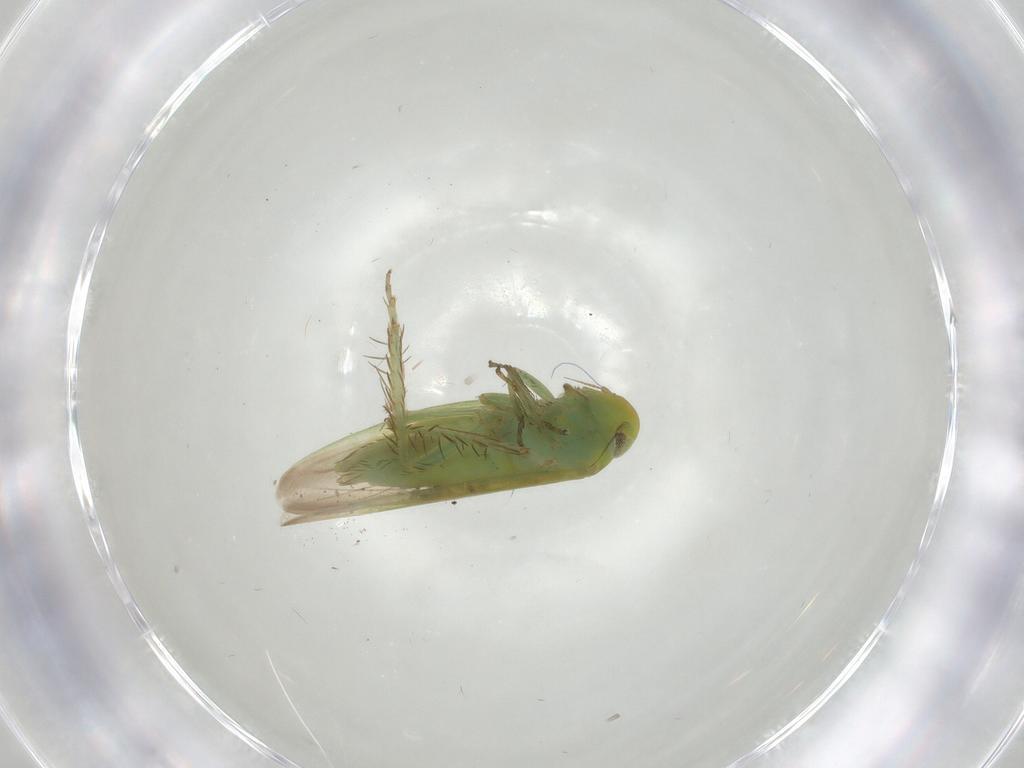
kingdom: Animalia
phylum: Arthropoda
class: Insecta
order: Hemiptera
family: Cicadellidae
